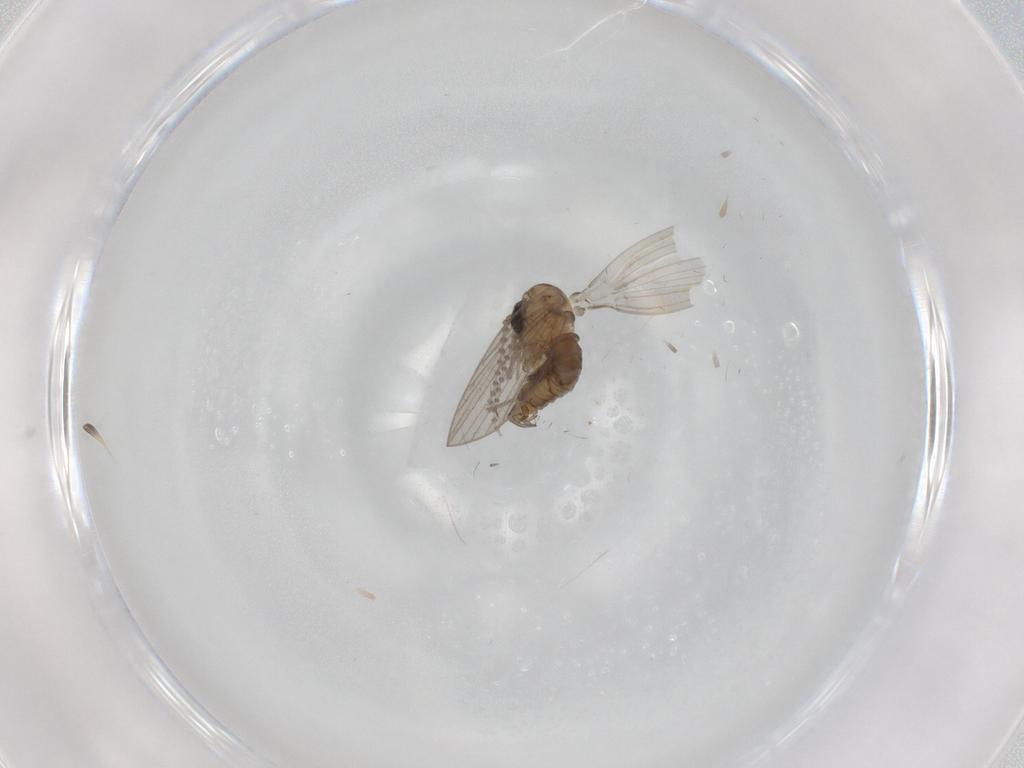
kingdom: Animalia
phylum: Arthropoda
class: Insecta
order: Diptera
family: Psychodidae
